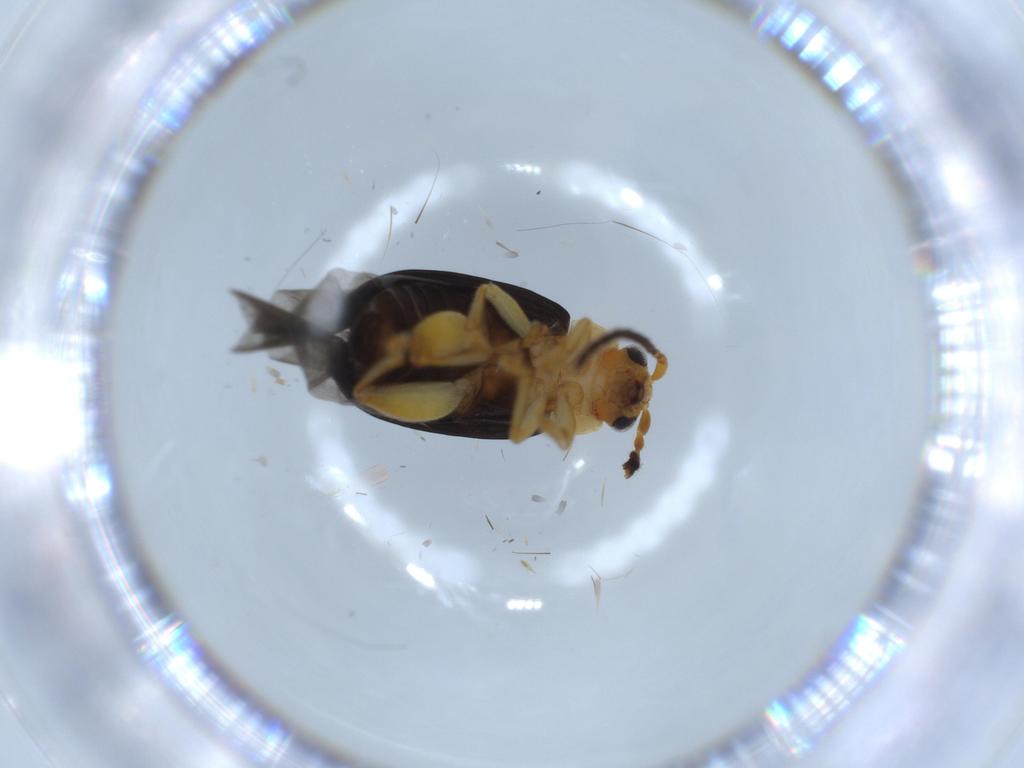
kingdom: Animalia
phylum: Arthropoda
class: Insecta
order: Coleoptera
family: Chrysomelidae
